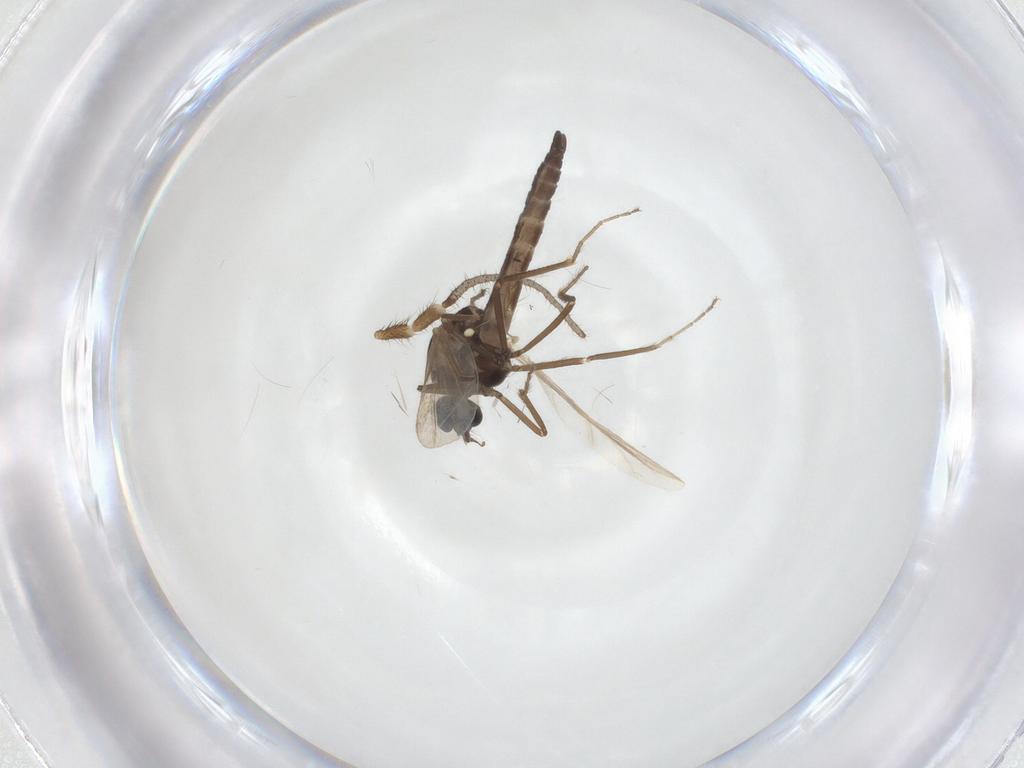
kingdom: Animalia
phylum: Arthropoda
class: Insecta
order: Diptera
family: Ceratopogonidae
